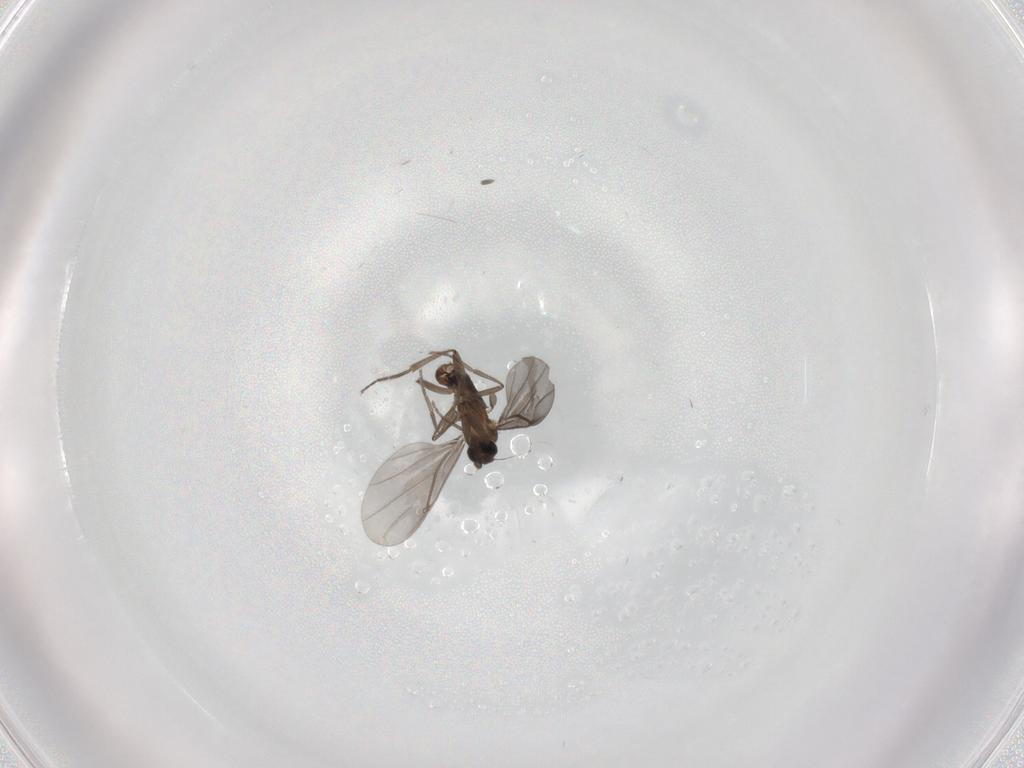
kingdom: Animalia
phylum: Arthropoda
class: Insecta
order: Diptera
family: Phoridae
